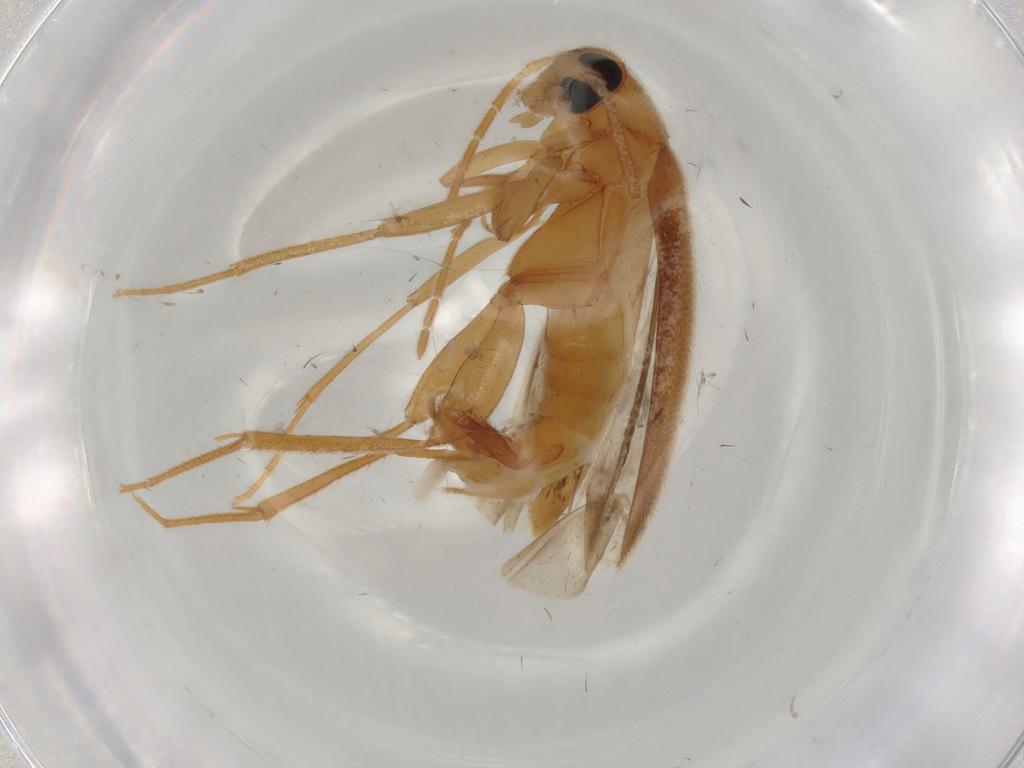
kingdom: Animalia
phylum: Arthropoda
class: Insecta
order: Coleoptera
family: Scraptiidae
